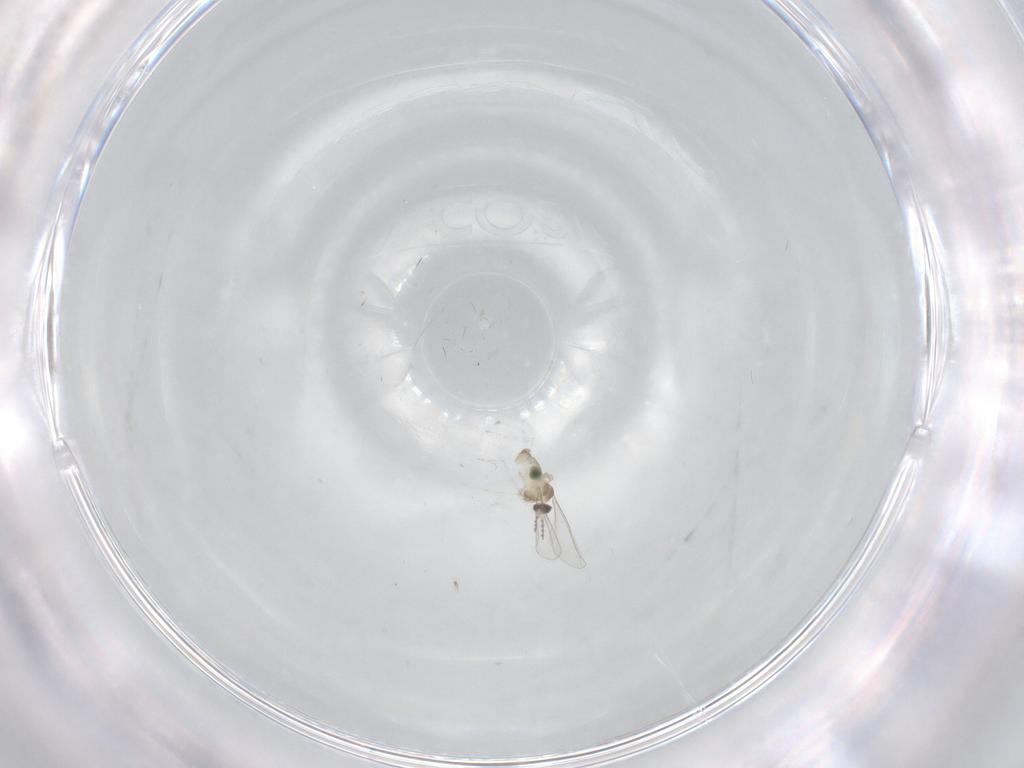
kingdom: Animalia
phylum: Arthropoda
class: Insecta
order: Diptera
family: Cecidomyiidae
